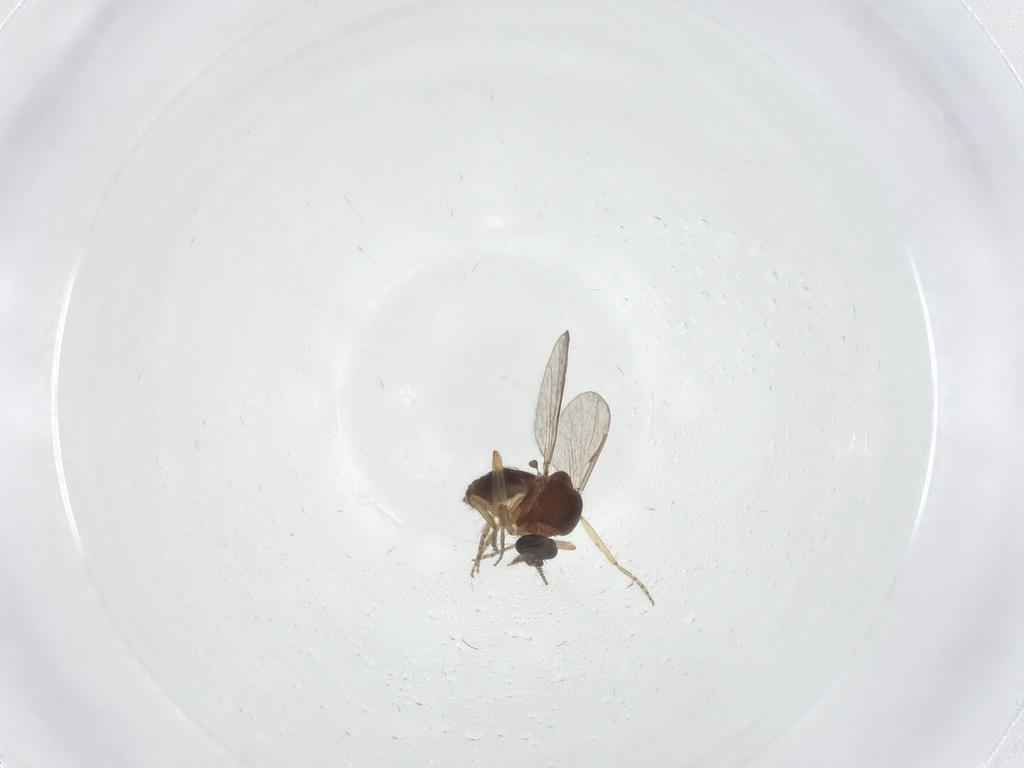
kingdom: Animalia
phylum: Arthropoda
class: Insecta
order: Diptera
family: Ceratopogonidae
